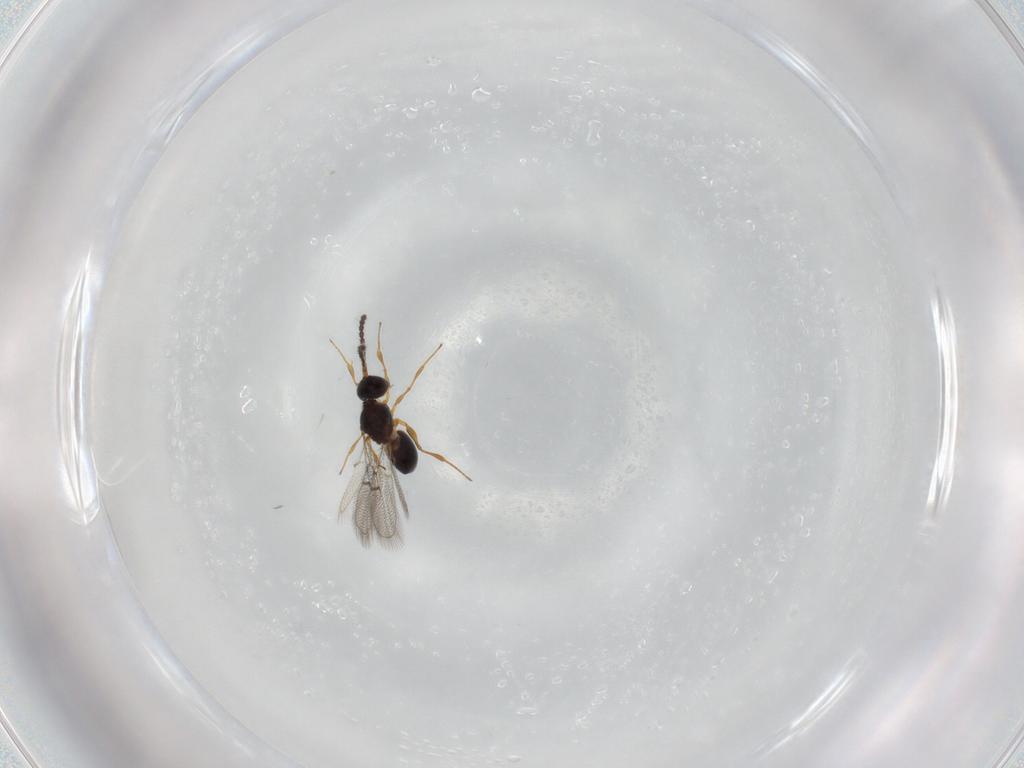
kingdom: Animalia
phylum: Arthropoda
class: Insecta
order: Hymenoptera
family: Figitidae
